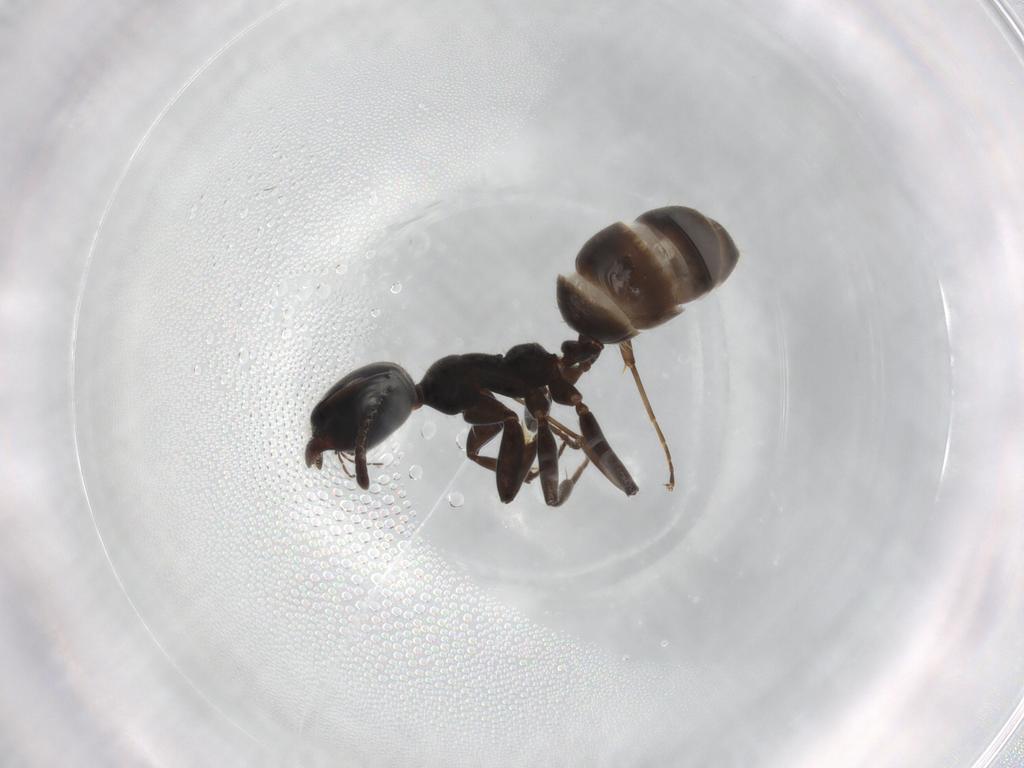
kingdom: Animalia
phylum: Arthropoda
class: Insecta
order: Hymenoptera
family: Formicidae
